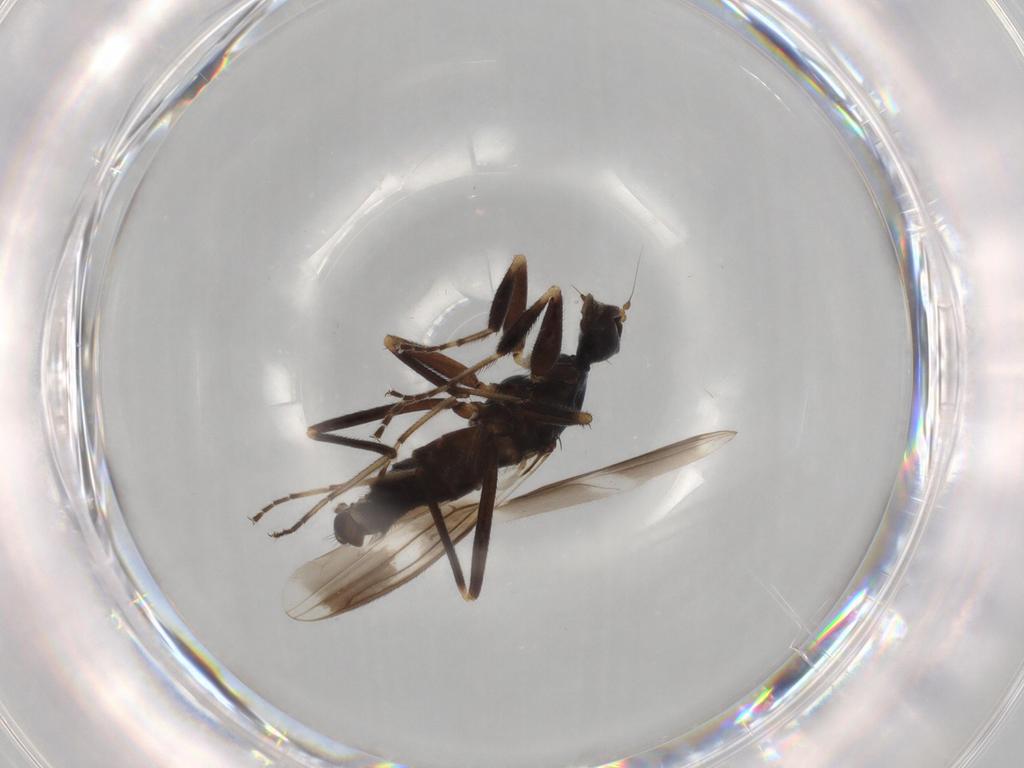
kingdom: Animalia
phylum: Arthropoda
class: Insecta
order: Diptera
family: Hybotidae
